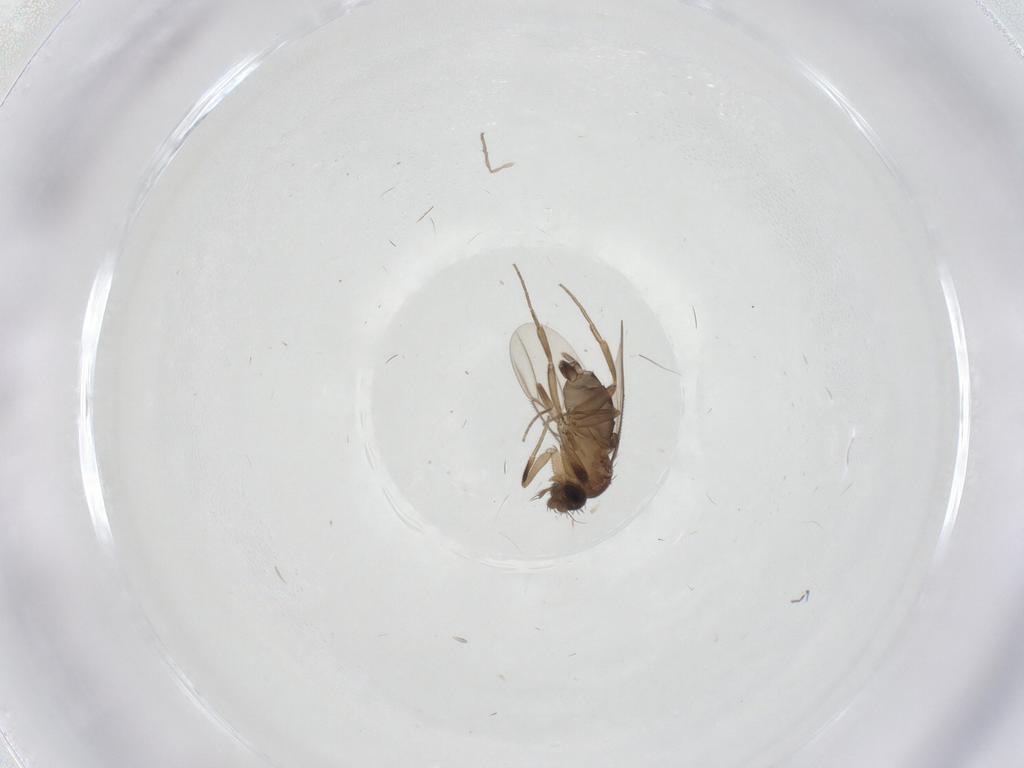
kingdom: Animalia
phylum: Arthropoda
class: Insecta
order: Diptera
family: Phoridae
